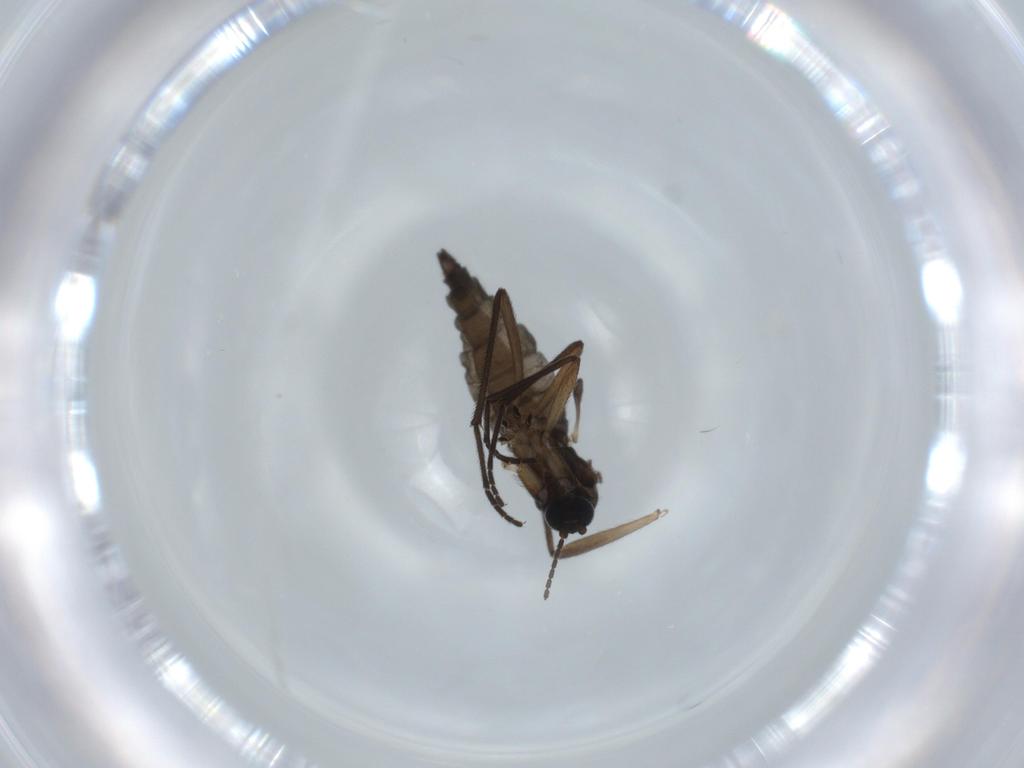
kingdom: Animalia
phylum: Arthropoda
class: Insecta
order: Diptera
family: Sciaridae
